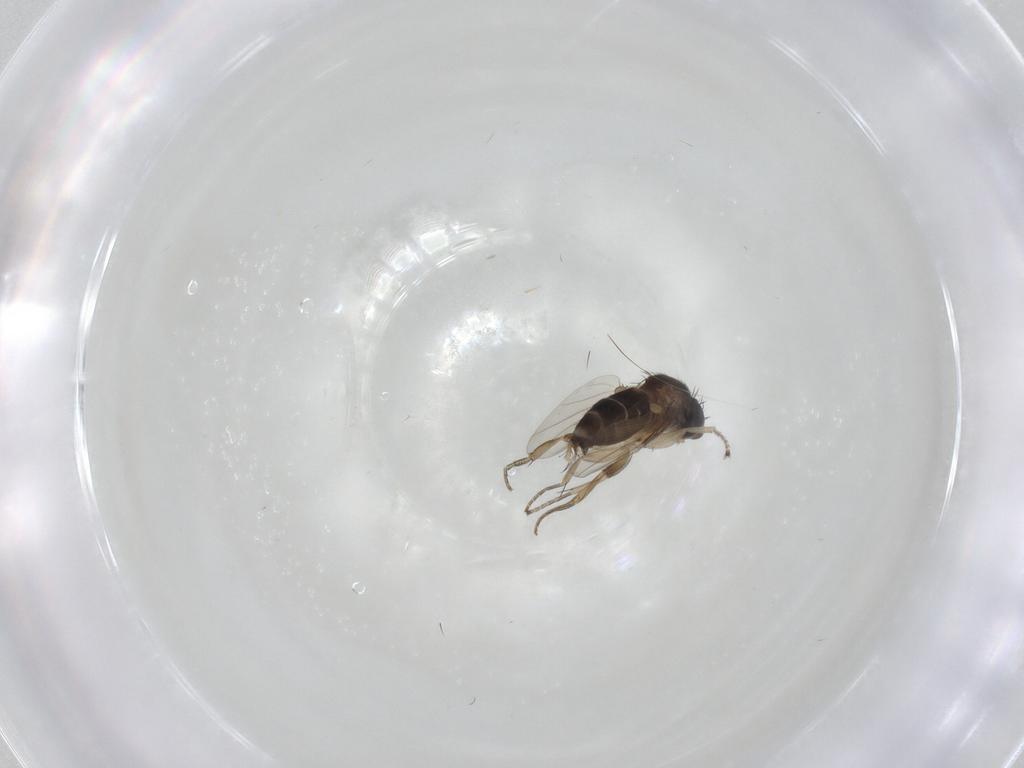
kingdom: Animalia
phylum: Arthropoda
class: Insecta
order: Diptera
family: Phoridae
